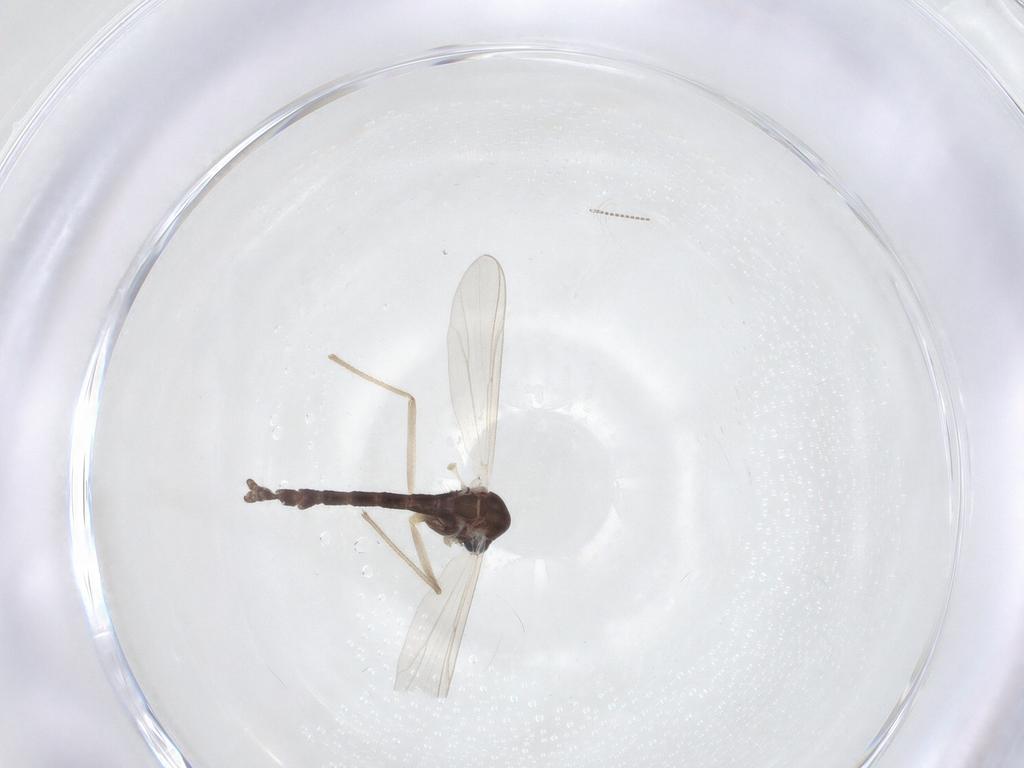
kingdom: Animalia
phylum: Arthropoda
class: Insecta
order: Diptera
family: Chironomidae
